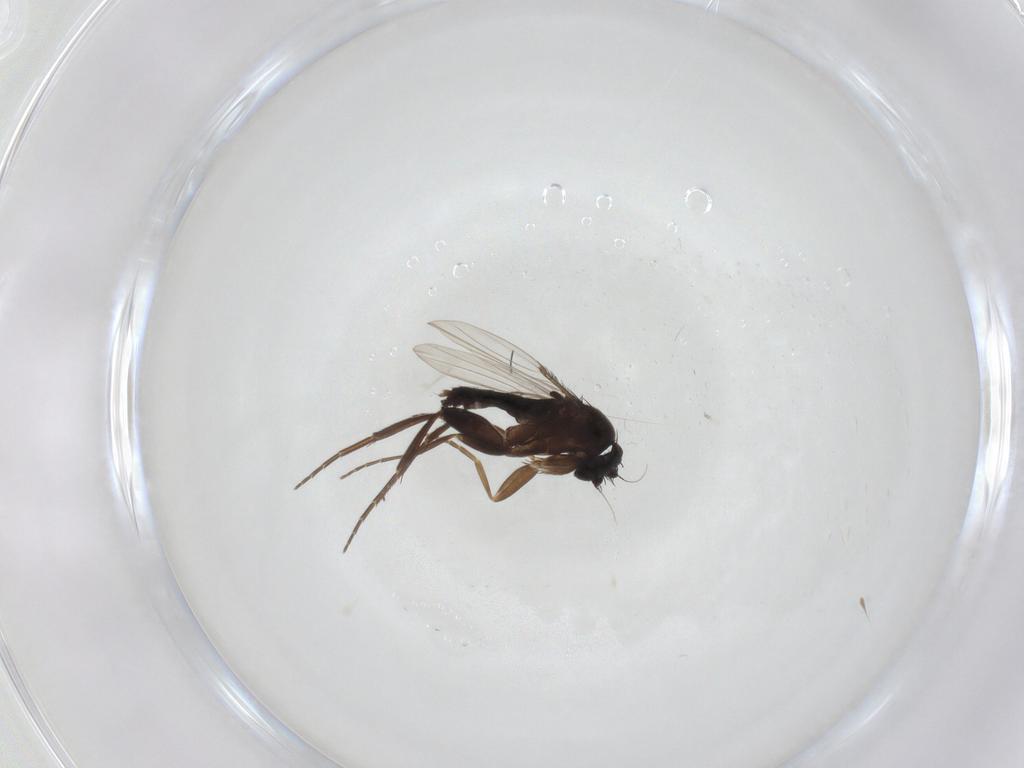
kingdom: Animalia
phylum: Arthropoda
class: Insecta
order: Diptera
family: Phoridae
